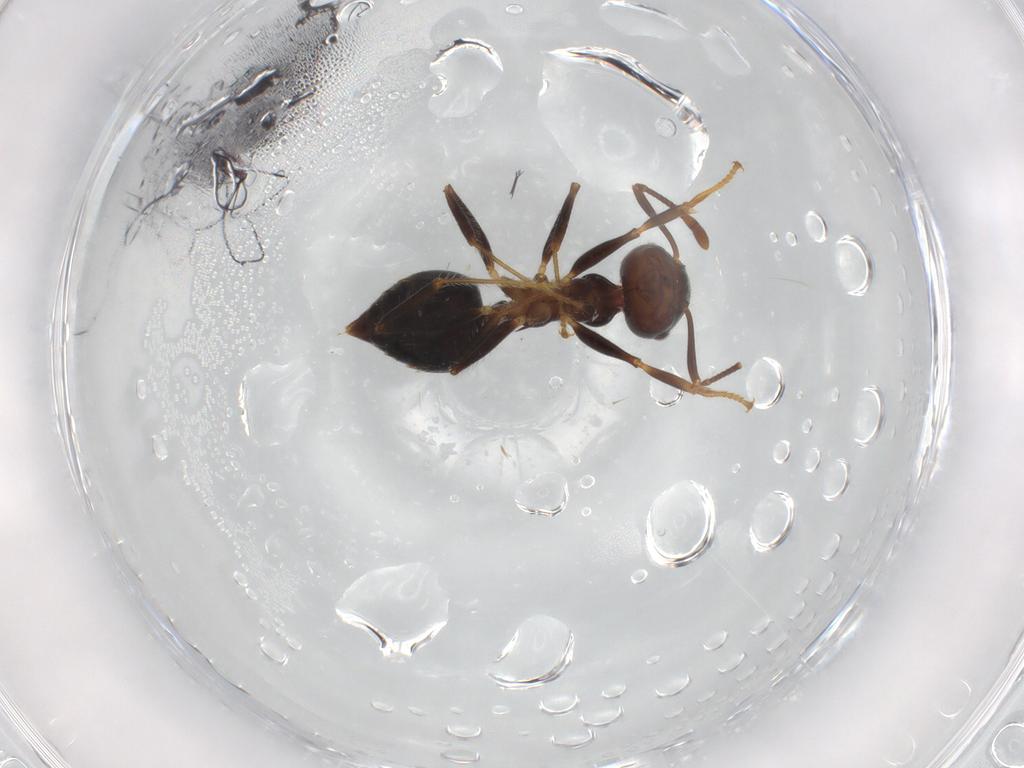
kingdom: Animalia
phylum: Arthropoda
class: Insecta
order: Hymenoptera
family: Formicidae
